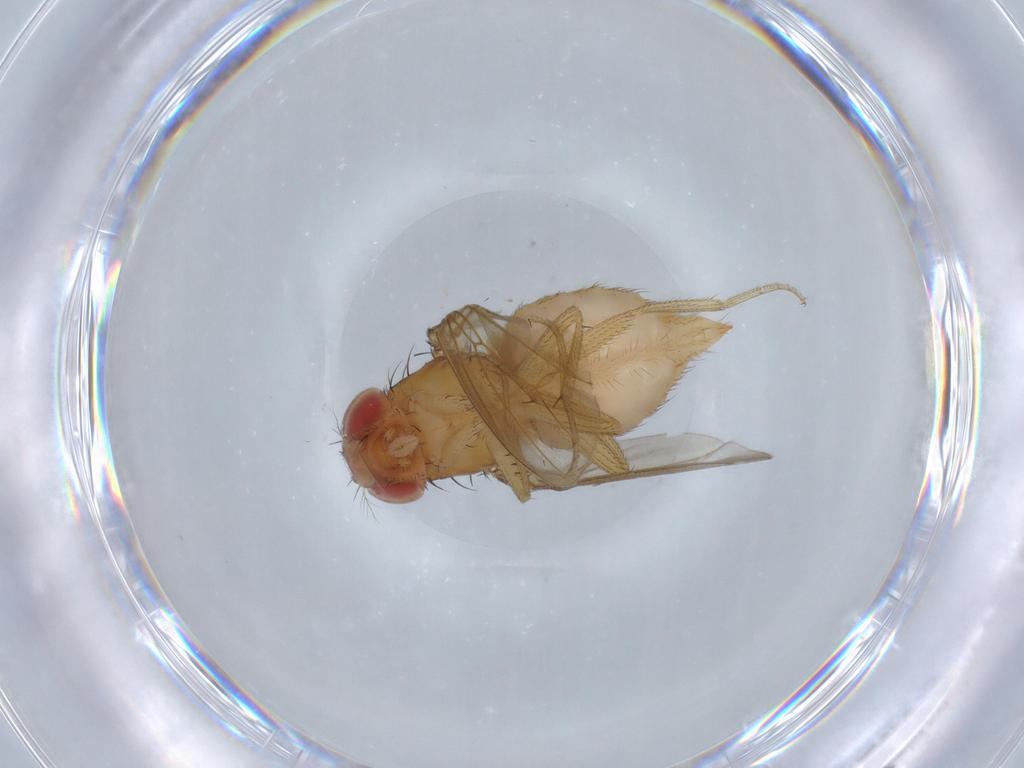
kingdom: Animalia
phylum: Arthropoda
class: Insecta
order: Diptera
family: Drosophilidae
